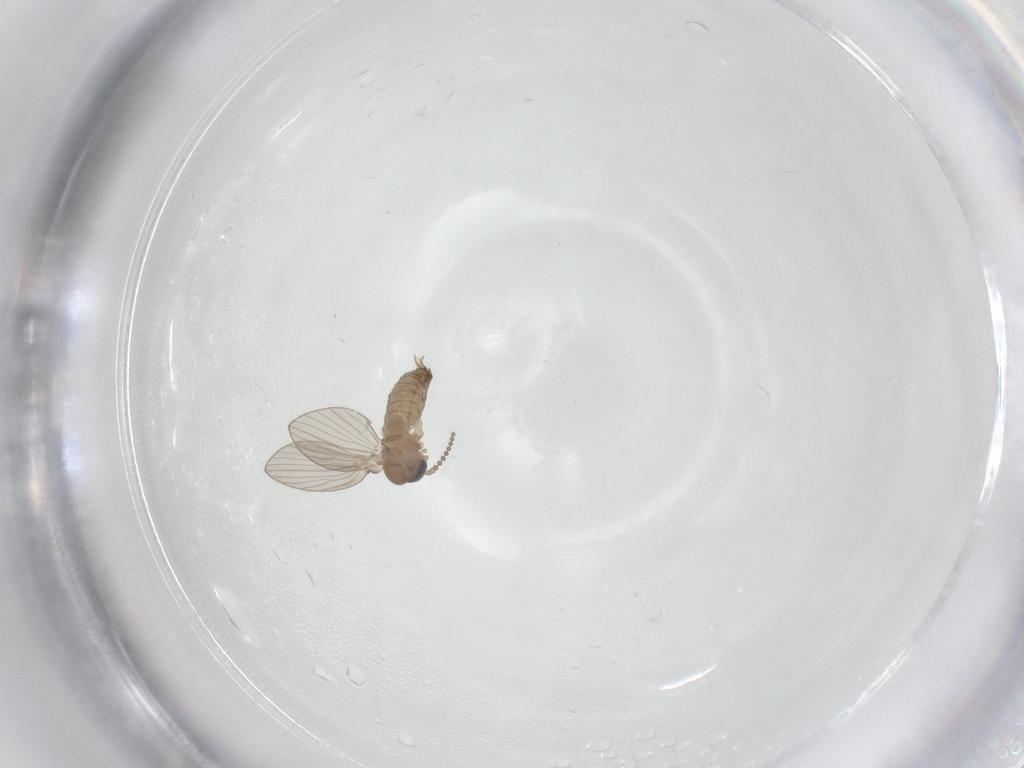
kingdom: Animalia
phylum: Arthropoda
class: Insecta
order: Diptera
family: Psychodidae
